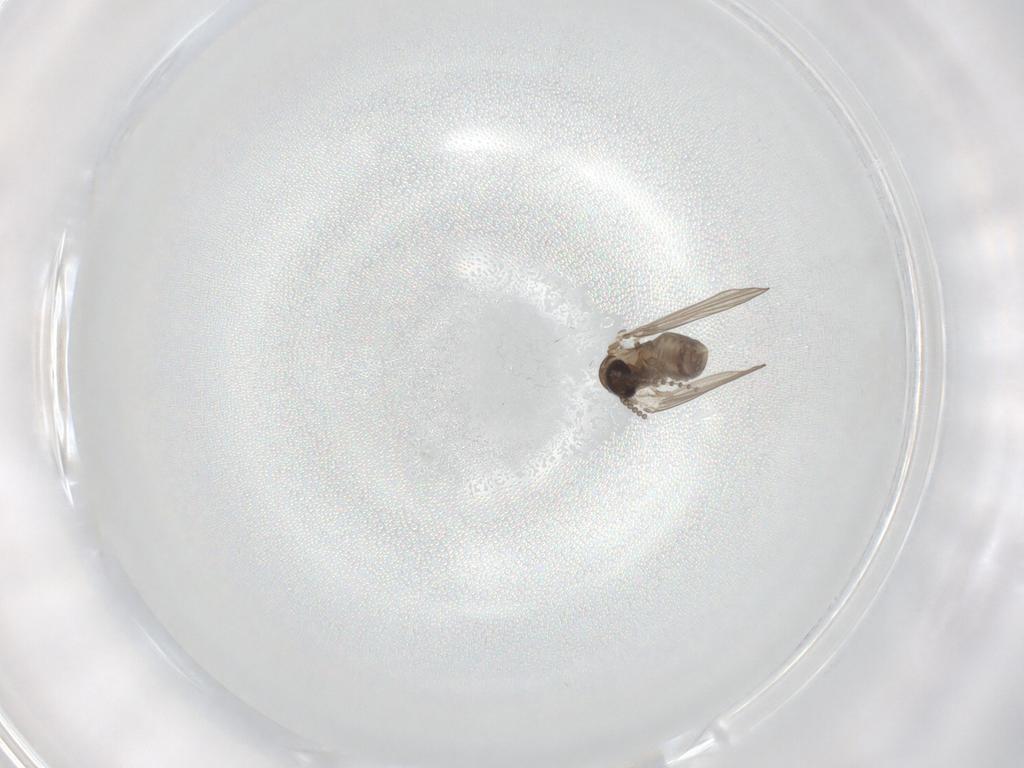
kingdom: Animalia
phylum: Arthropoda
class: Insecta
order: Diptera
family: Psychodidae
